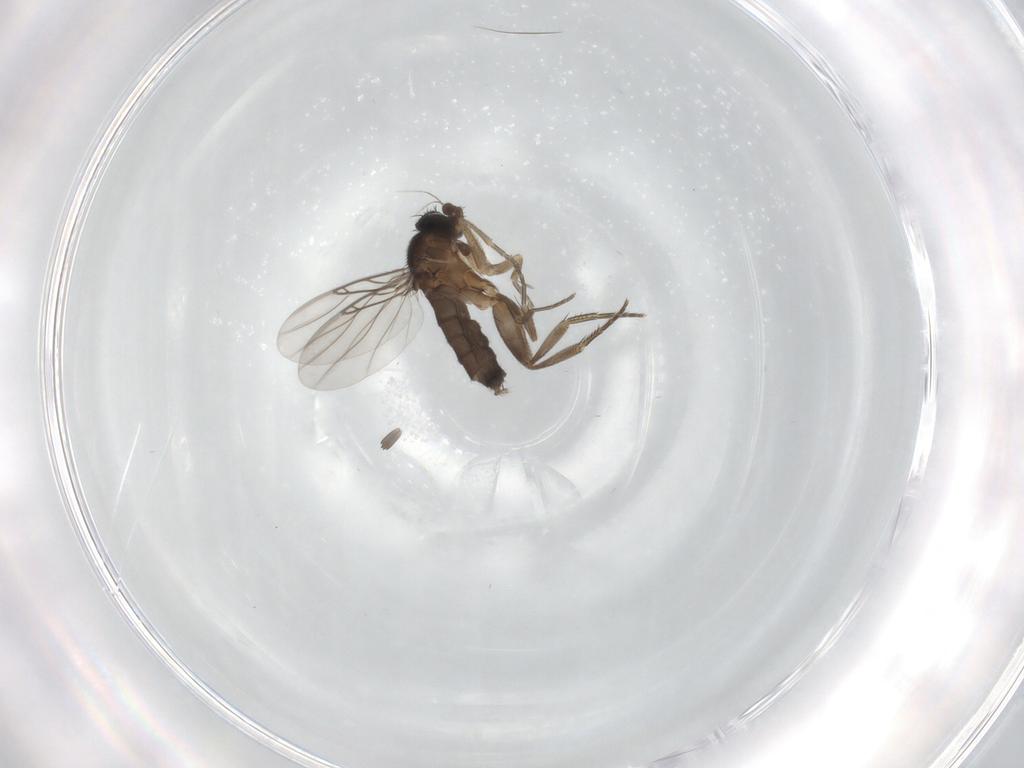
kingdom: Animalia
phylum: Arthropoda
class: Insecta
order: Diptera
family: Phoridae
